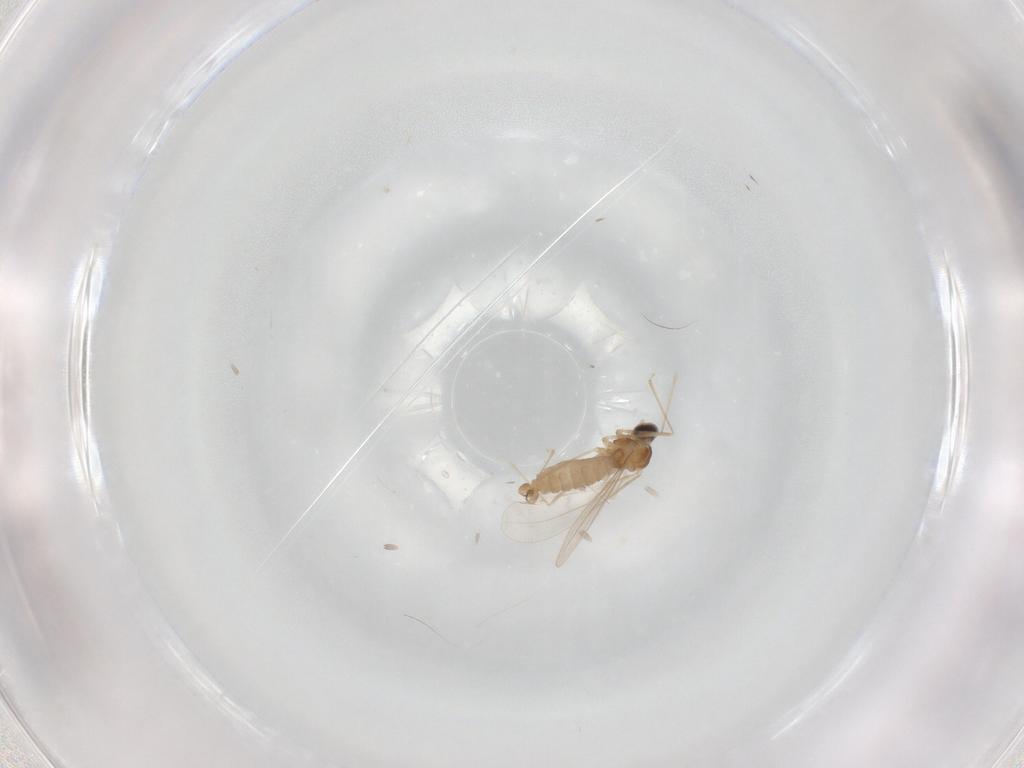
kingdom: Animalia
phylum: Arthropoda
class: Insecta
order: Diptera
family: Cecidomyiidae
